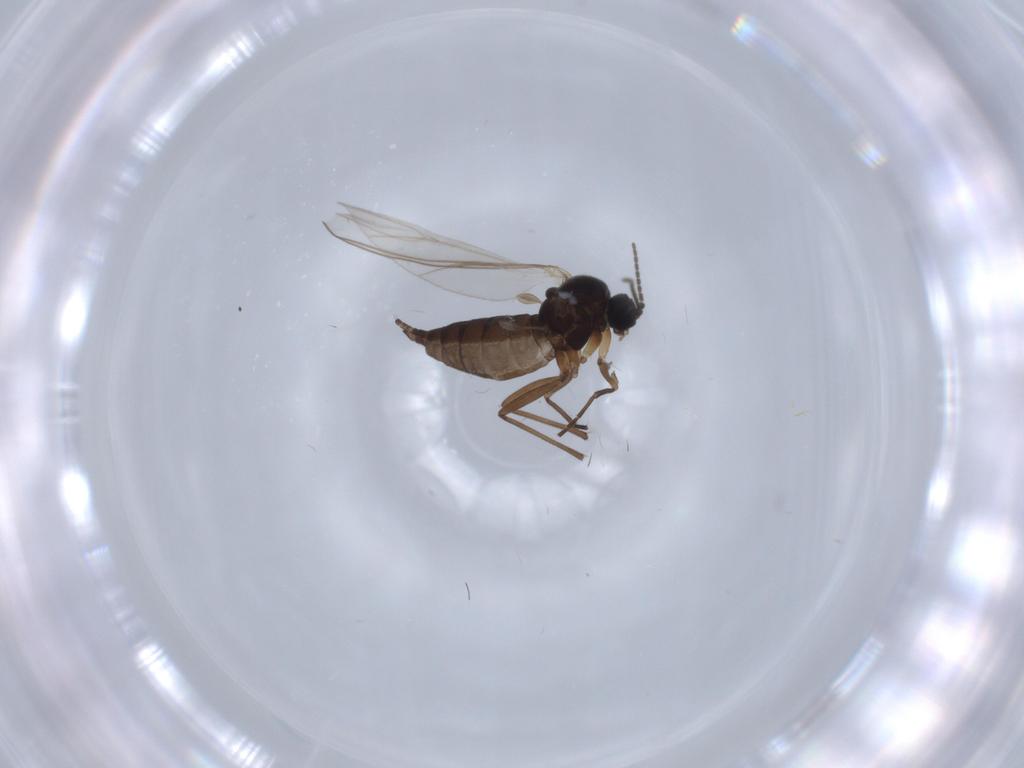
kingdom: Animalia
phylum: Arthropoda
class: Insecta
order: Diptera
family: Sciaridae
